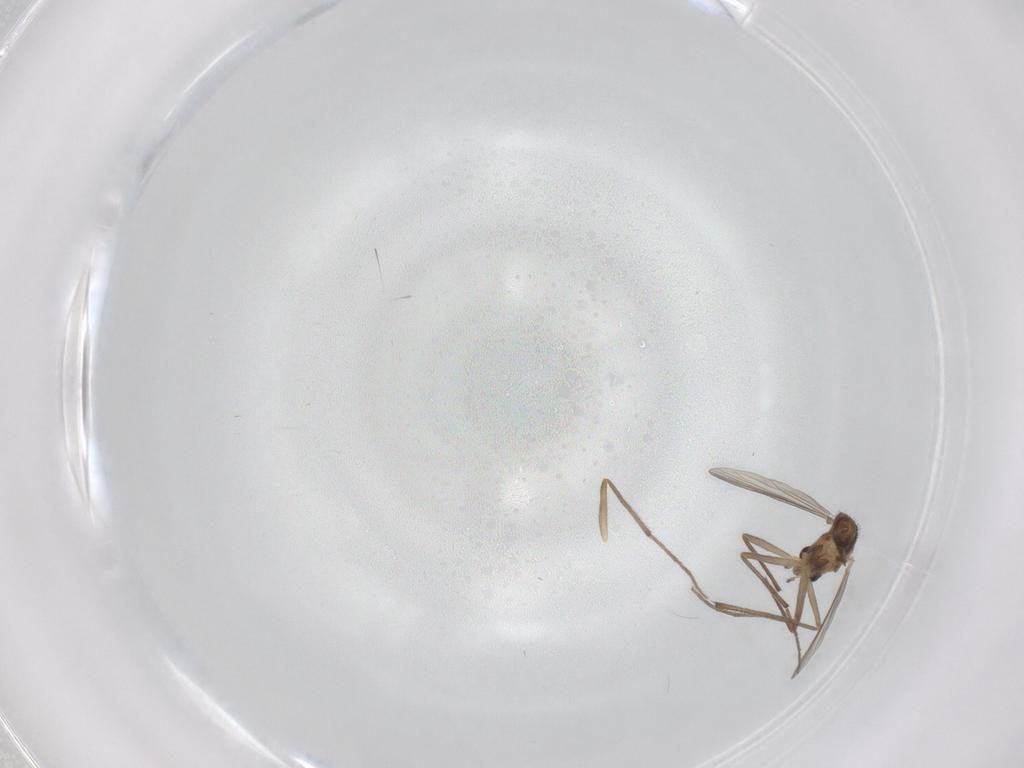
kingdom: Animalia
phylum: Arthropoda
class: Insecta
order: Diptera
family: Chironomidae
